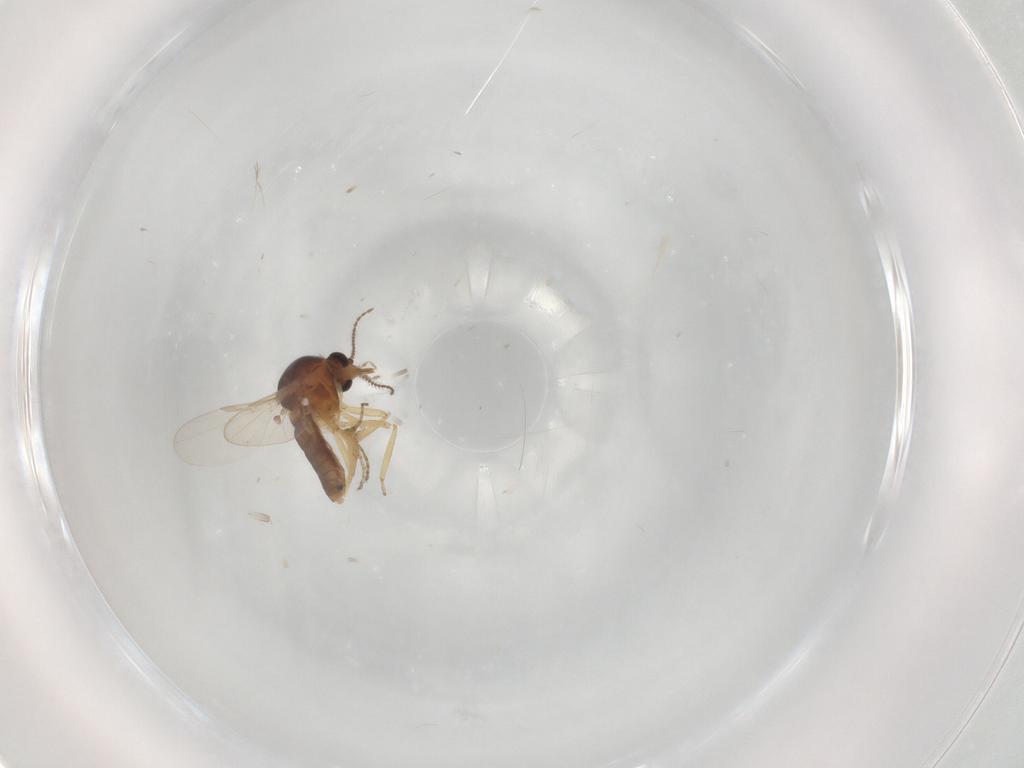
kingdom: Animalia
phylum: Arthropoda
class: Insecta
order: Diptera
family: Ceratopogonidae
